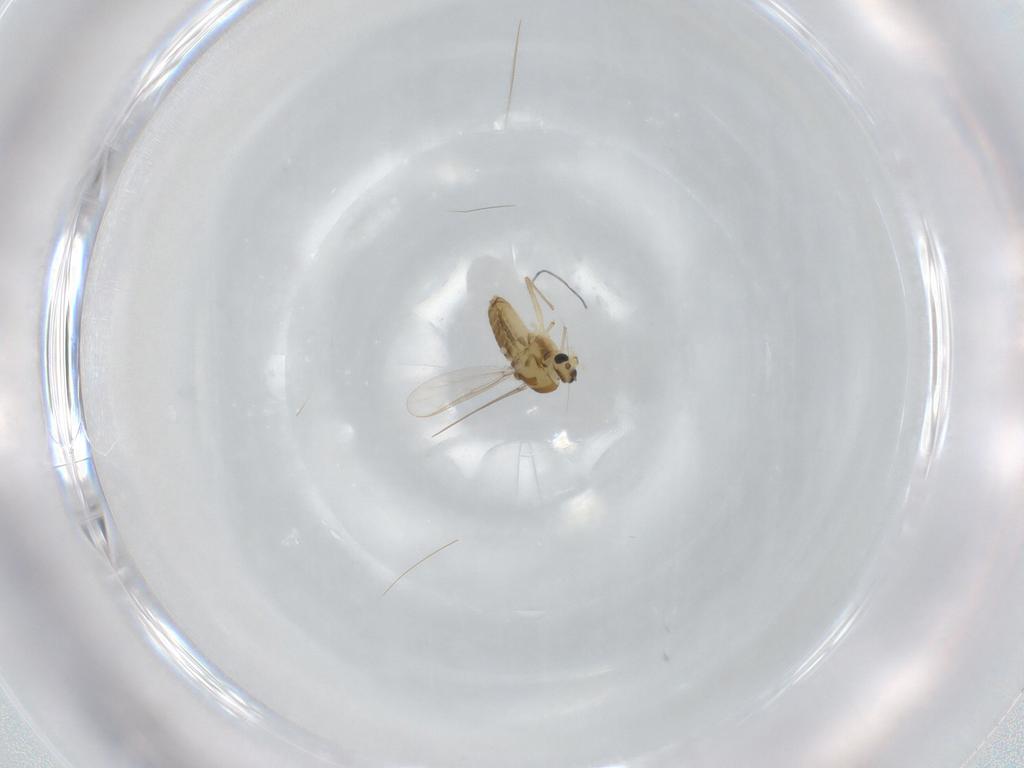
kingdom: Animalia
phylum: Arthropoda
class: Insecta
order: Diptera
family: Chironomidae
